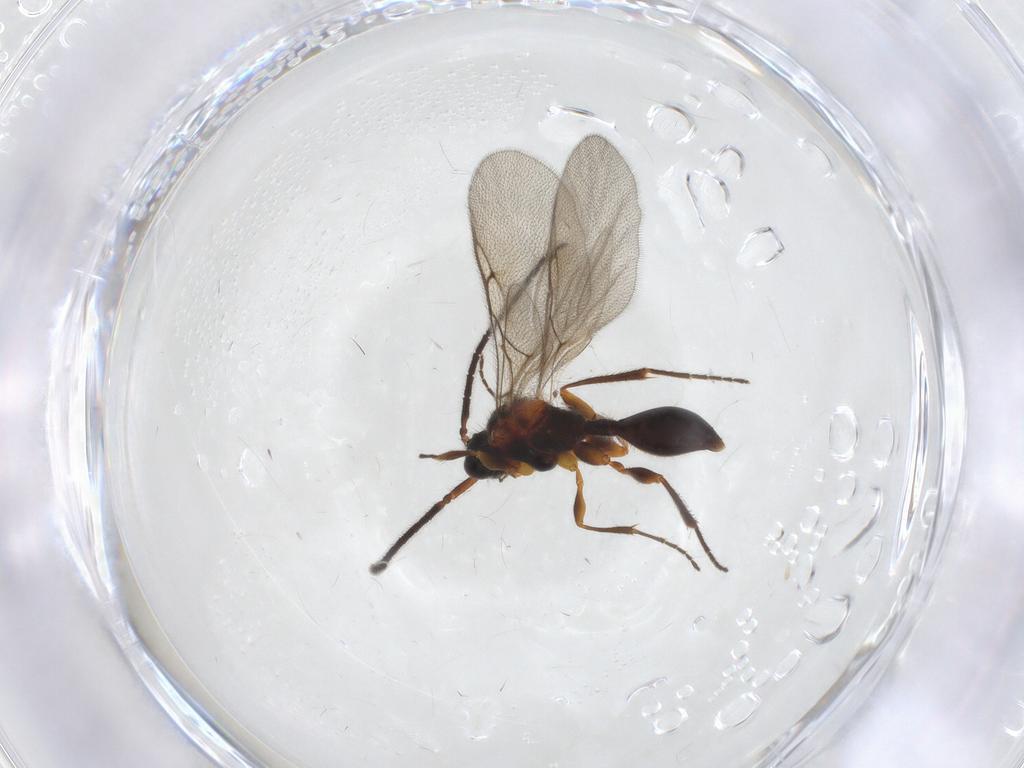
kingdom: Animalia
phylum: Arthropoda
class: Insecta
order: Hymenoptera
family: Diapriidae
